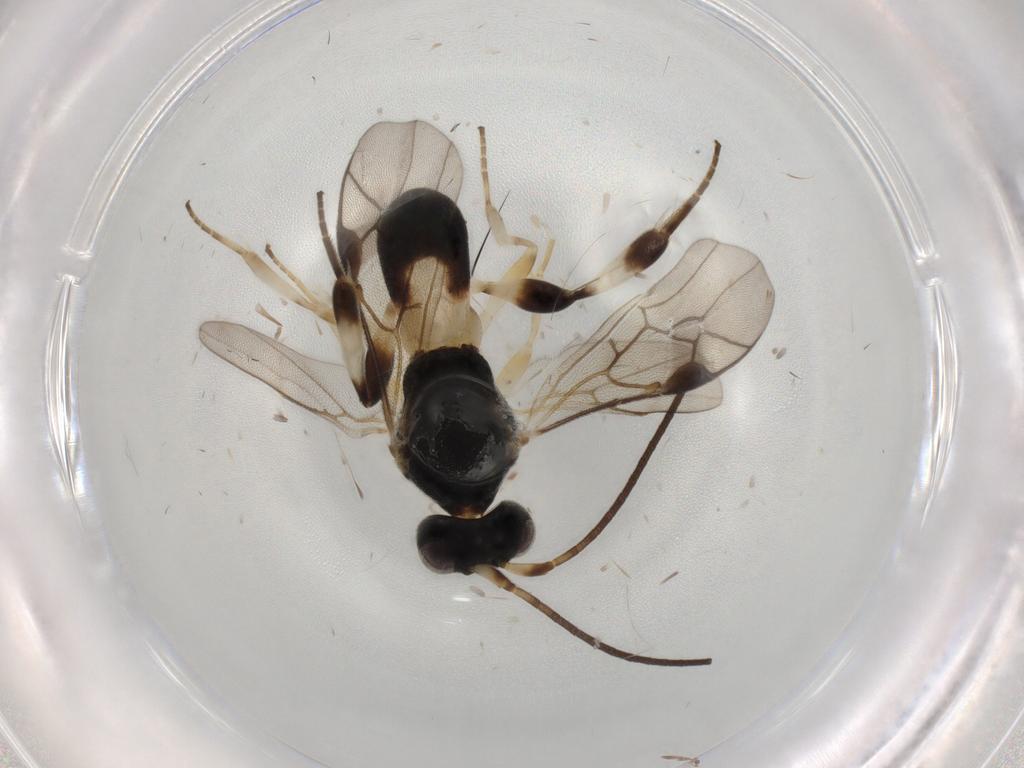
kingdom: Animalia
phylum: Arthropoda
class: Insecta
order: Hymenoptera
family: Braconidae
